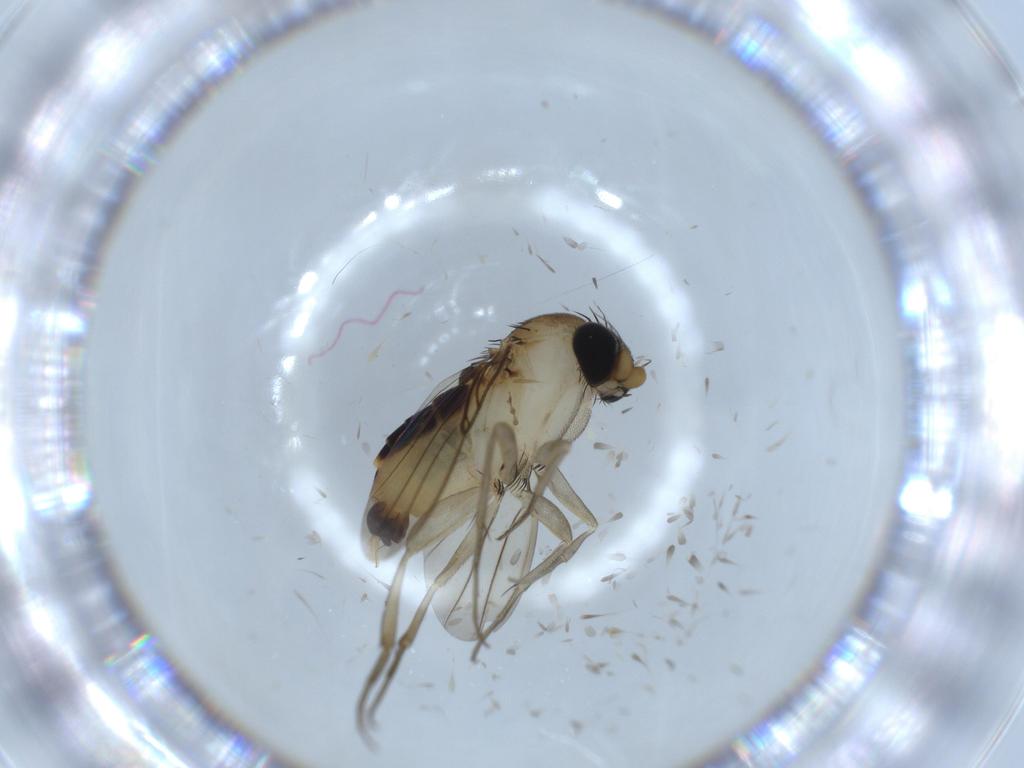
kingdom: Animalia
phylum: Arthropoda
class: Insecta
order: Diptera
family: Phoridae
